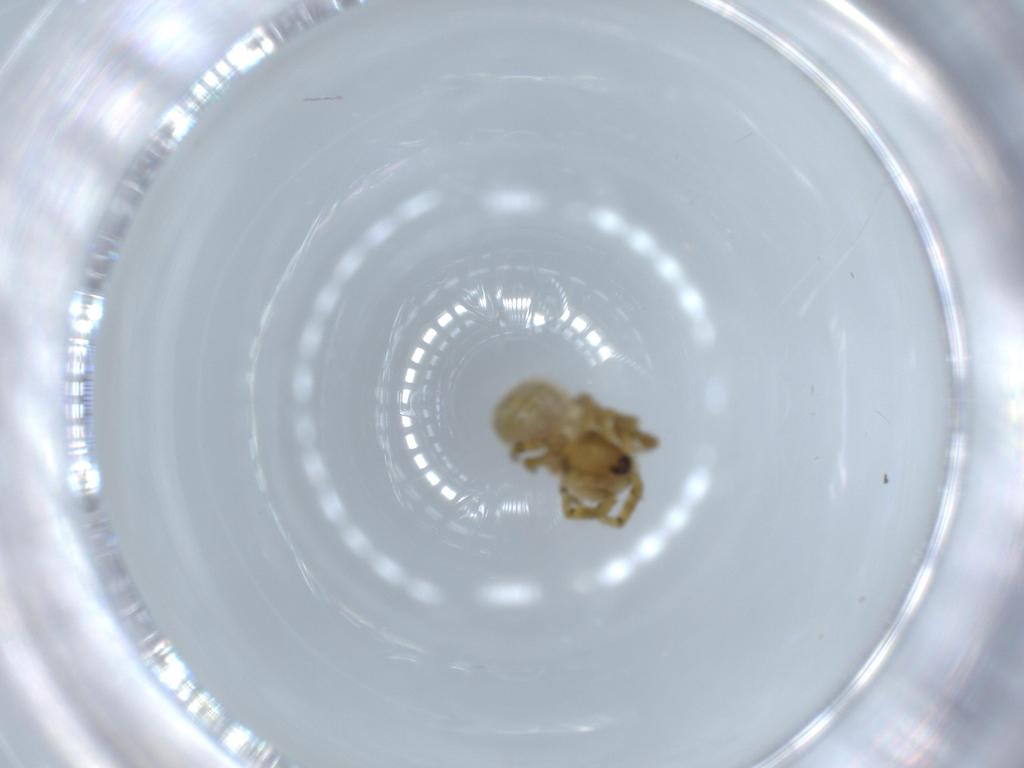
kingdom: Animalia
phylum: Arthropoda
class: Arachnida
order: Araneae
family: Araneidae
